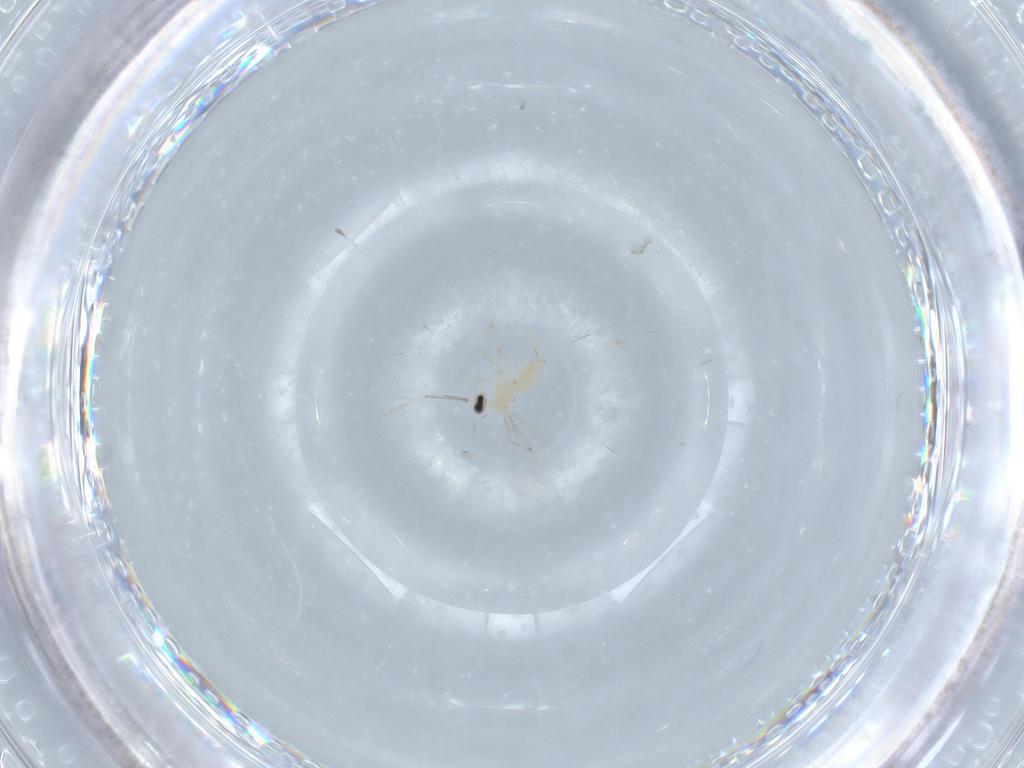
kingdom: Animalia
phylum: Arthropoda
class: Insecta
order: Diptera
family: Cecidomyiidae
